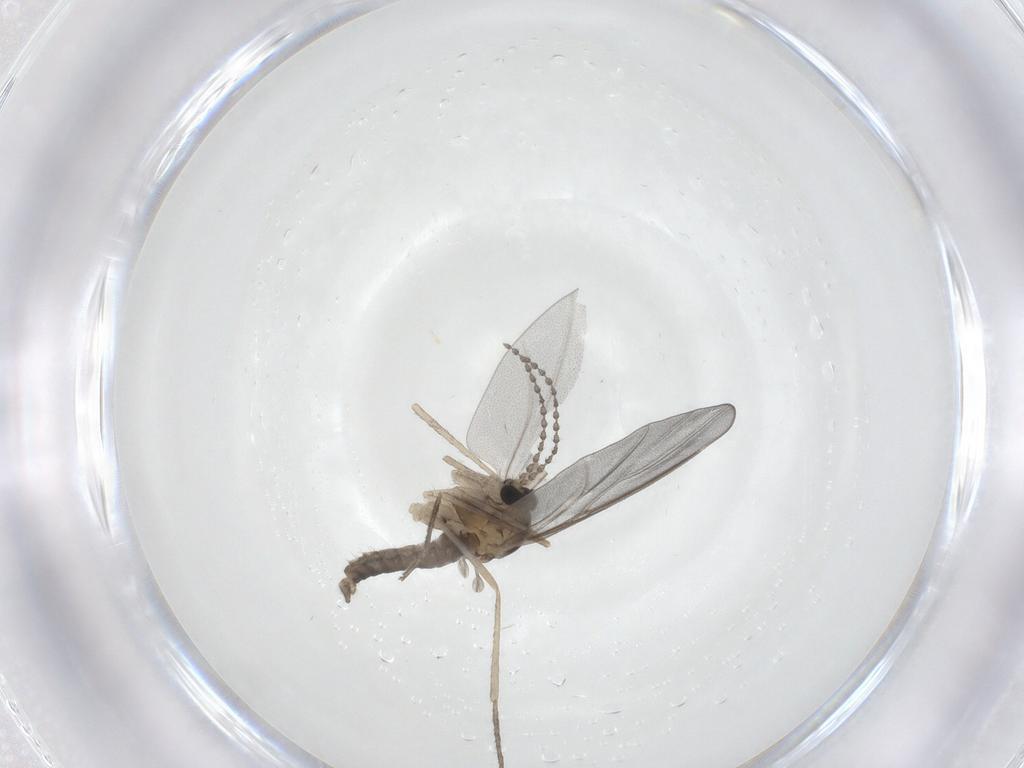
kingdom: Animalia
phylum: Arthropoda
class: Insecta
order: Diptera
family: Cecidomyiidae
